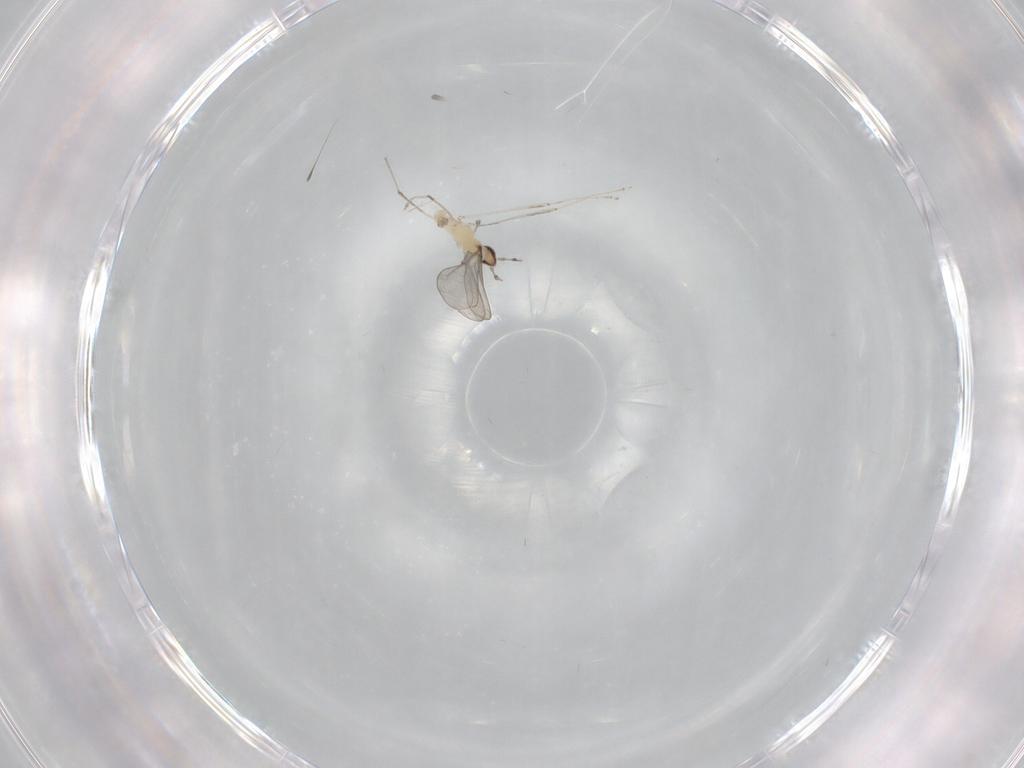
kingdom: Animalia
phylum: Arthropoda
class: Insecta
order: Diptera
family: Cecidomyiidae
